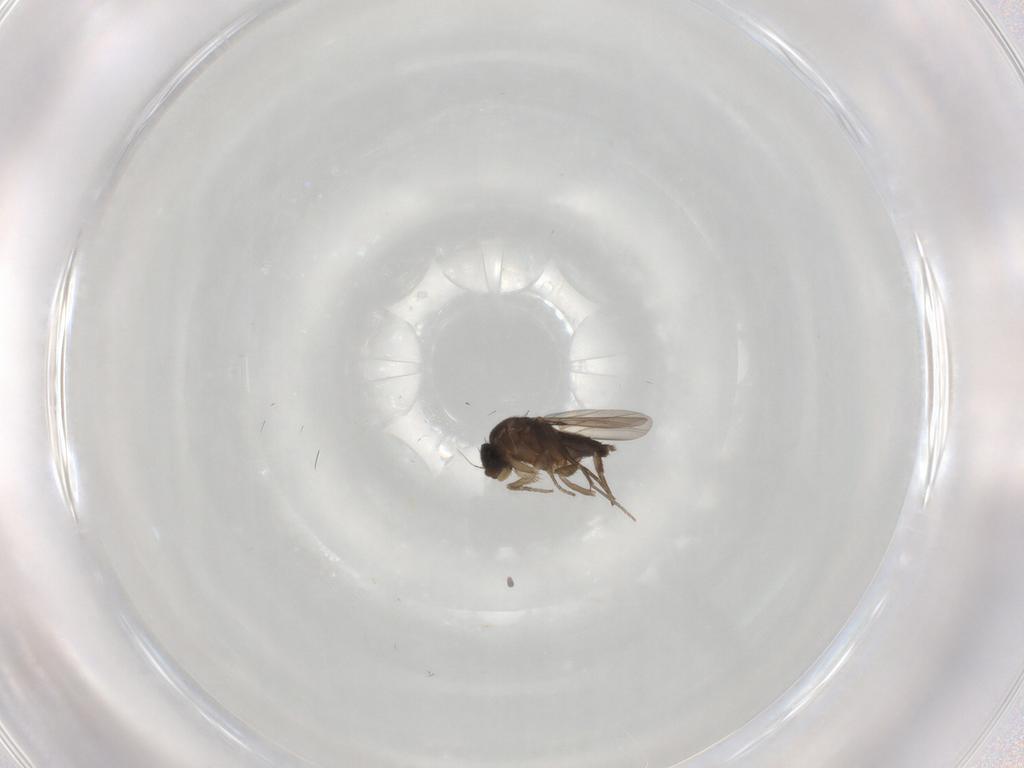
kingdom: Animalia
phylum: Arthropoda
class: Insecta
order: Diptera
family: Phoridae
